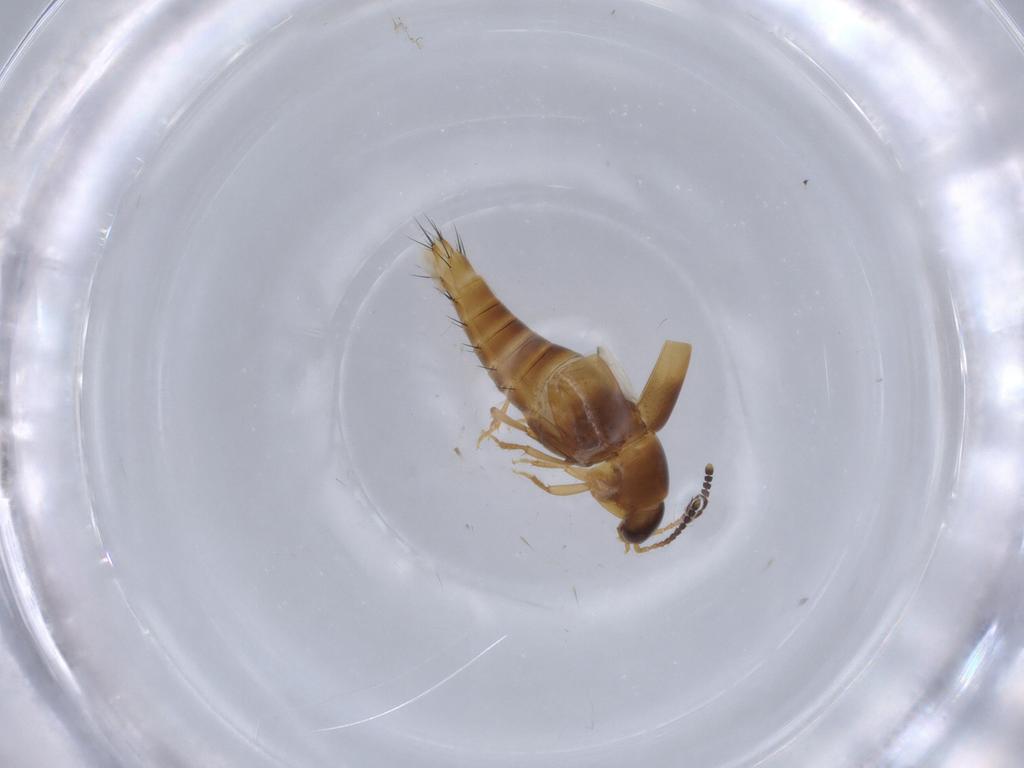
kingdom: Animalia
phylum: Arthropoda
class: Insecta
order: Coleoptera
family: Staphylinidae
